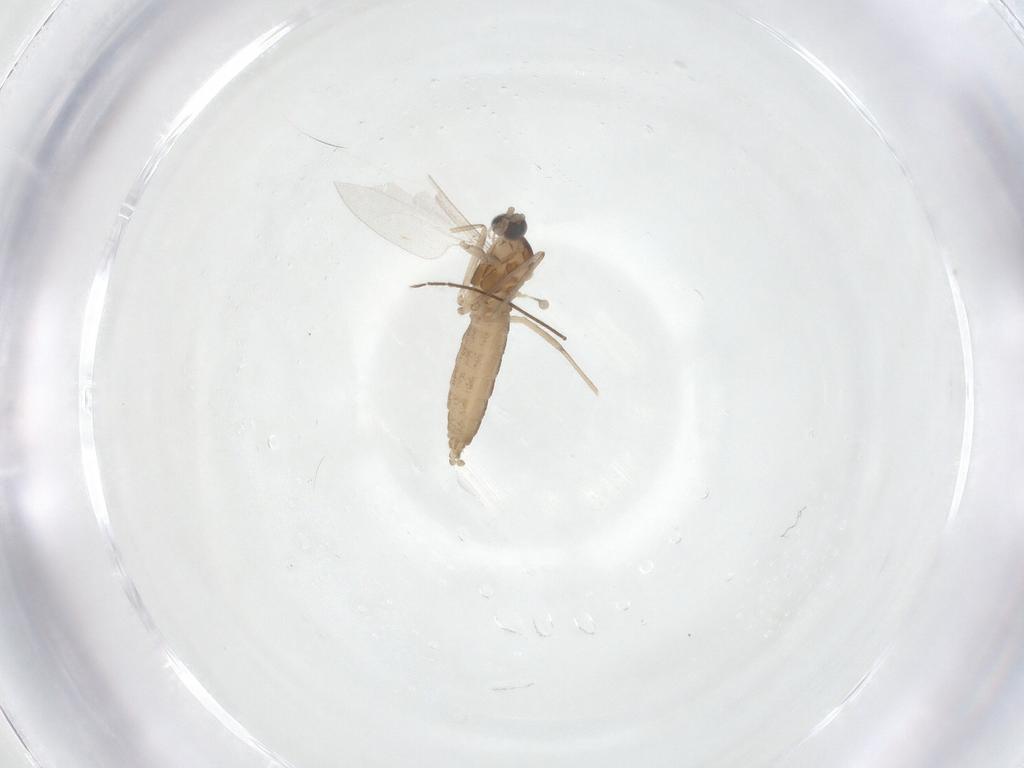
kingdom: Animalia
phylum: Arthropoda
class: Insecta
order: Diptera
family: Cecidomyiidae
